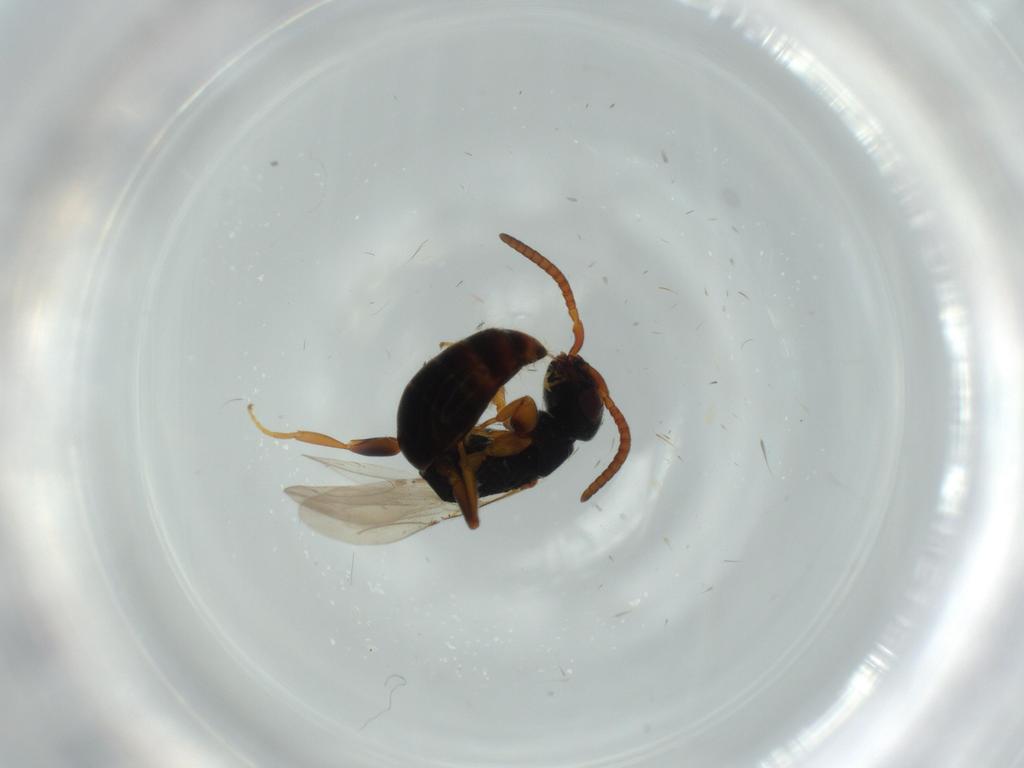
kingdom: Animalia
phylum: Arthropoda
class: Insecta
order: Hymenoptera
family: Bethylidae
